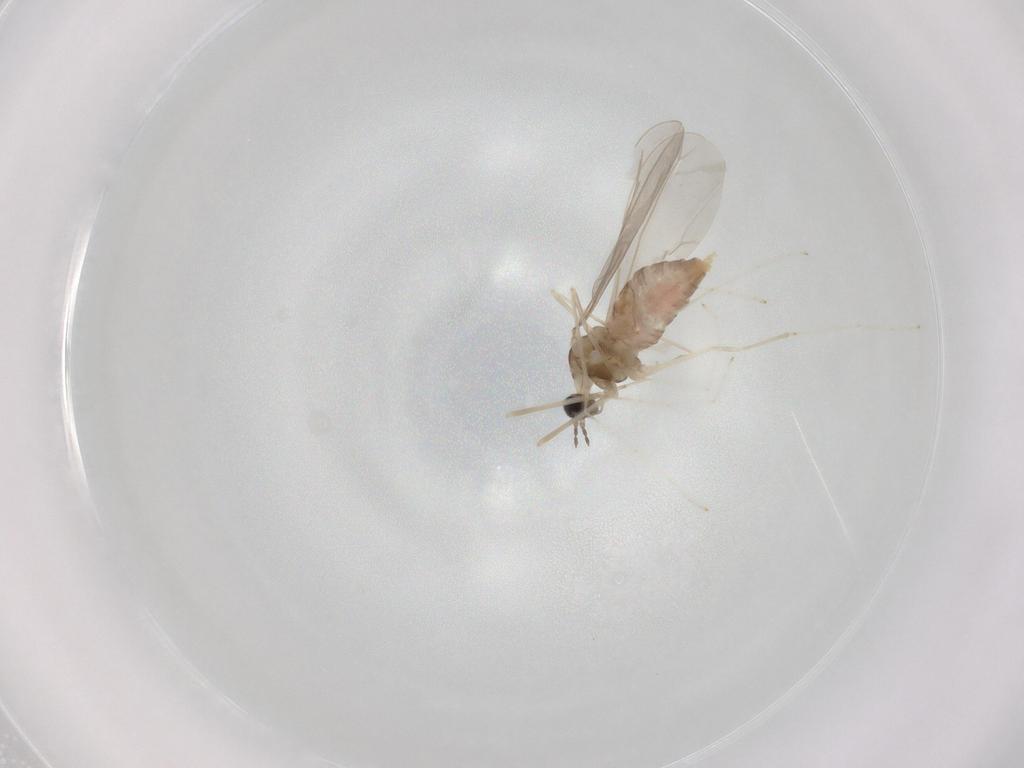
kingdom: Animalia
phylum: Arthropoda
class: Insecta
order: Diptera
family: Cecidomyiidae
